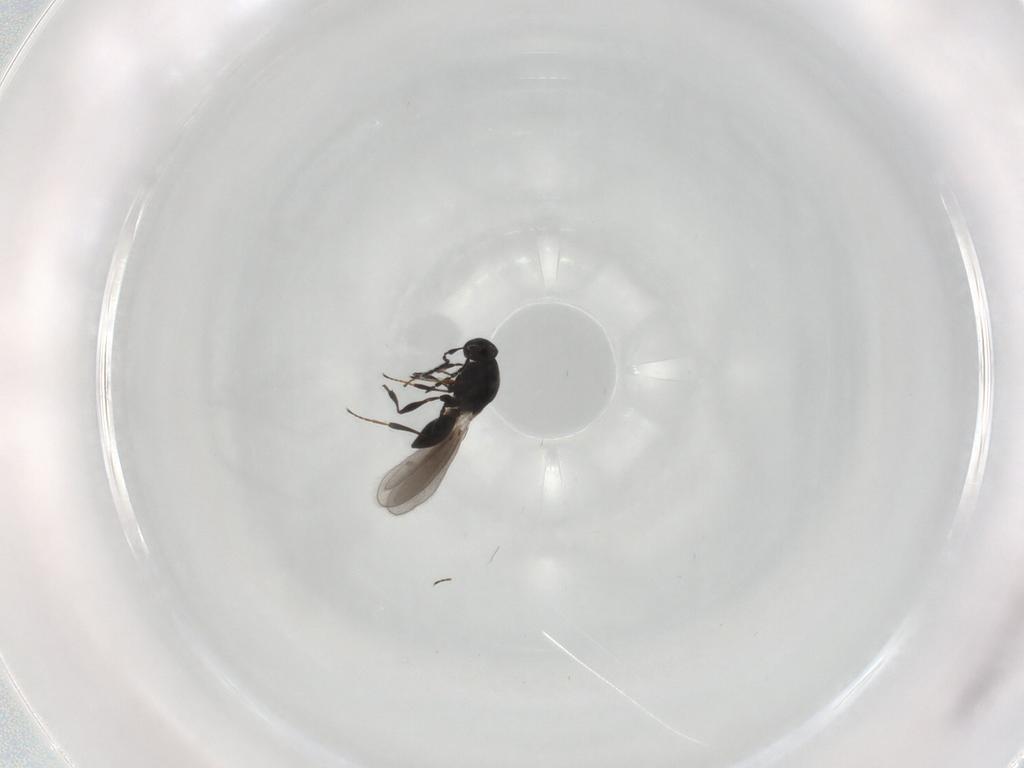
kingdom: Animalia
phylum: Arthropoda
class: Insecta
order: Hymenoptera
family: Platygastridae
